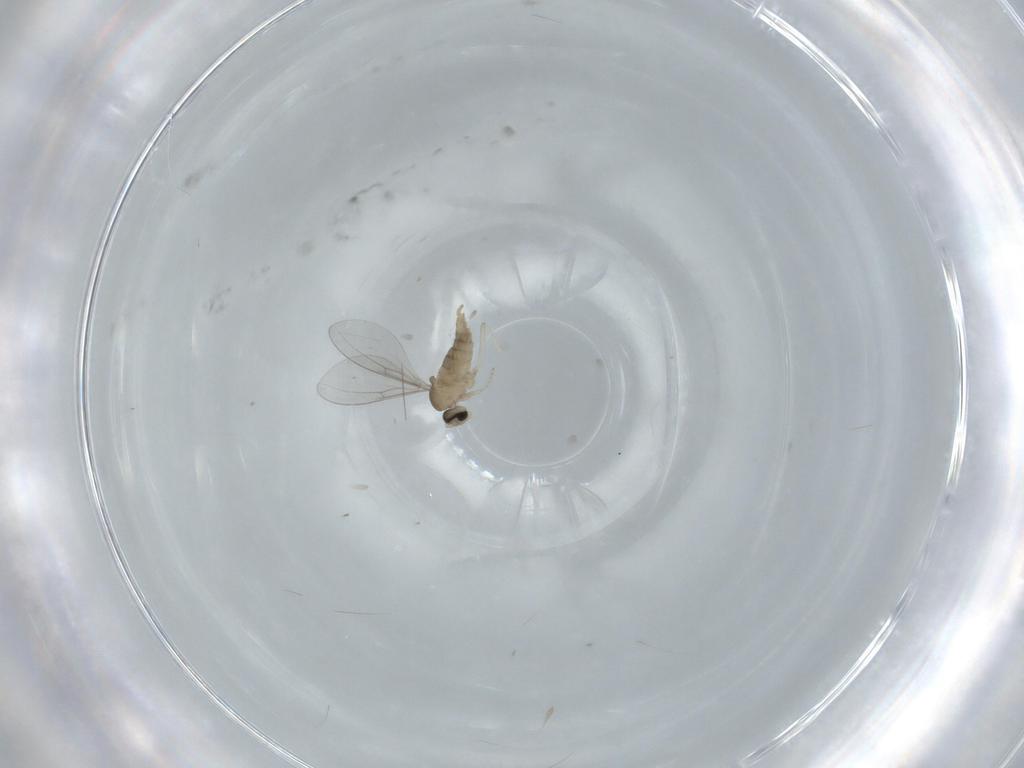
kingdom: Animalia
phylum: Arthropoda
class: Insecta
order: Diptera
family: Cecidomyiidae
